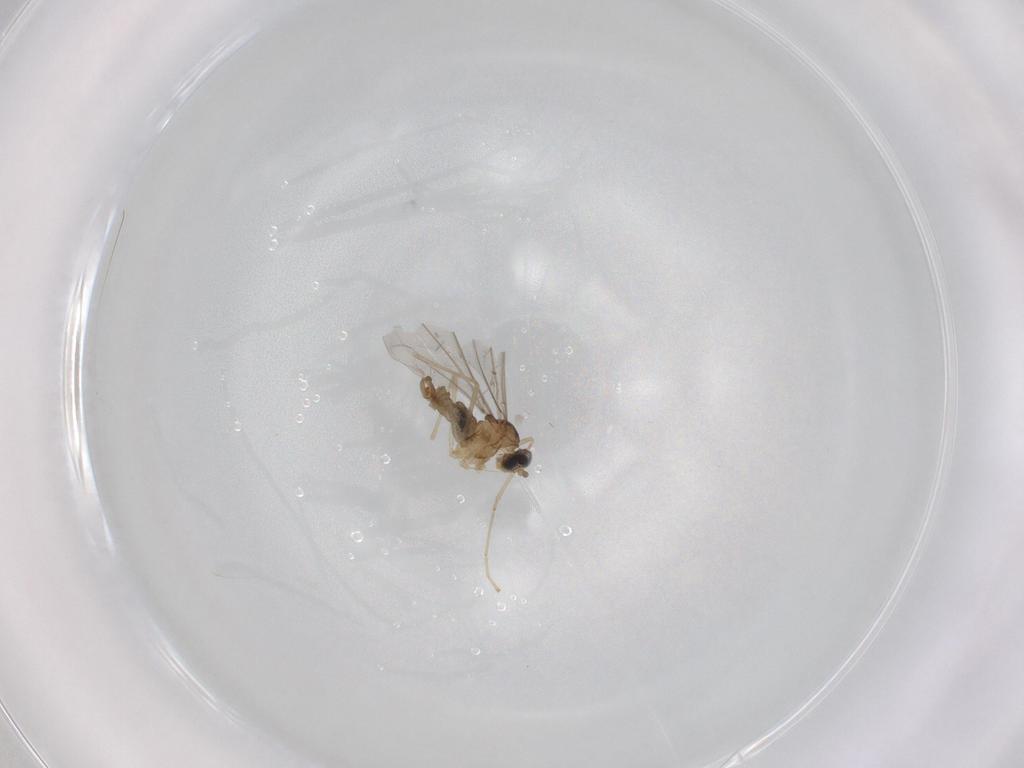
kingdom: Animalia
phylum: Arthropoda
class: Insecta
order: Diptera
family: Cecidomyiidae
